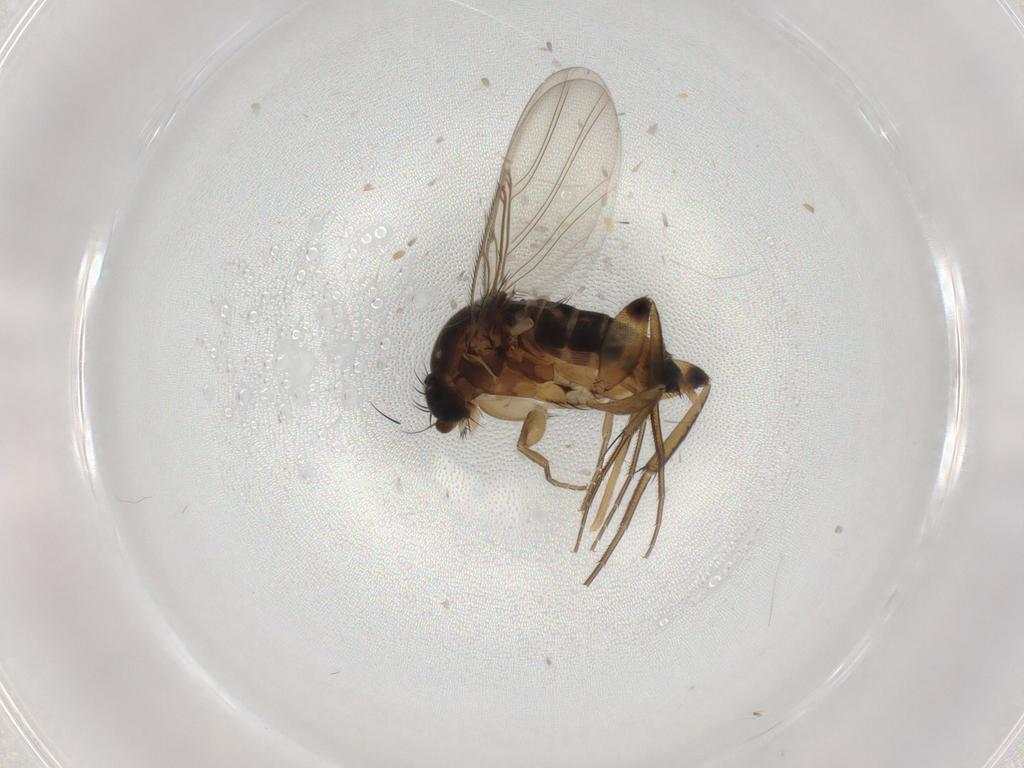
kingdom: Animalia
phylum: Arthropoda
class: Insecta
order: Diptera
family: Phoridae
